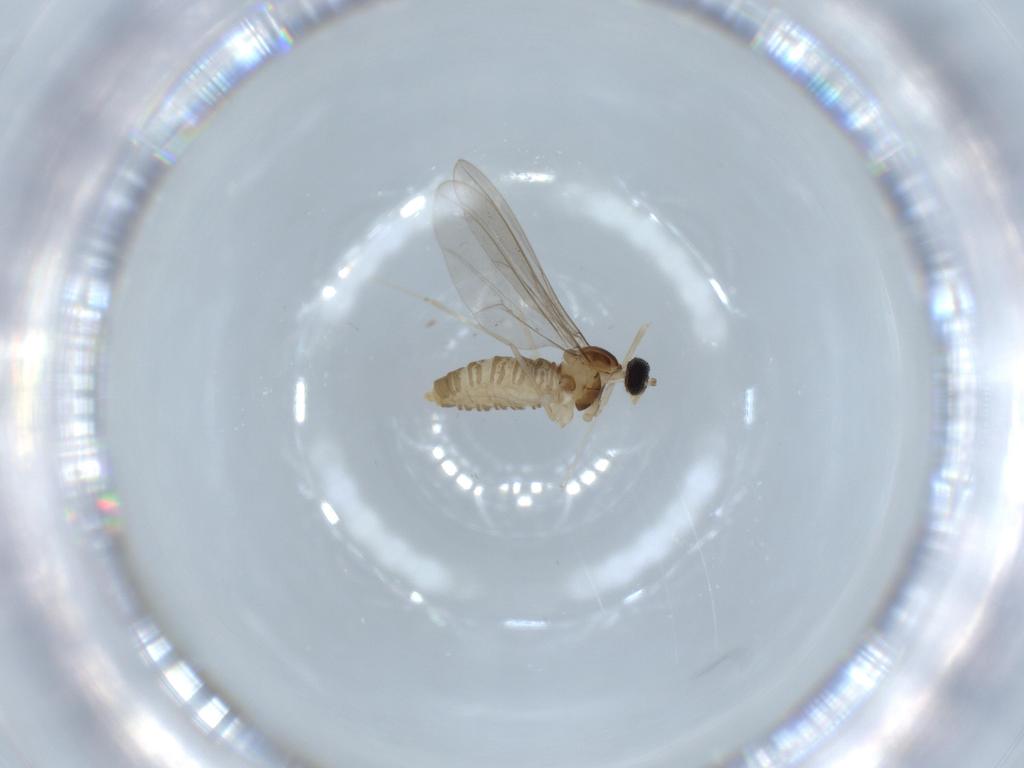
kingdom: Animalia
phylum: Arthropoda
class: Insecta
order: Diptera
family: Cecidomyiidae
